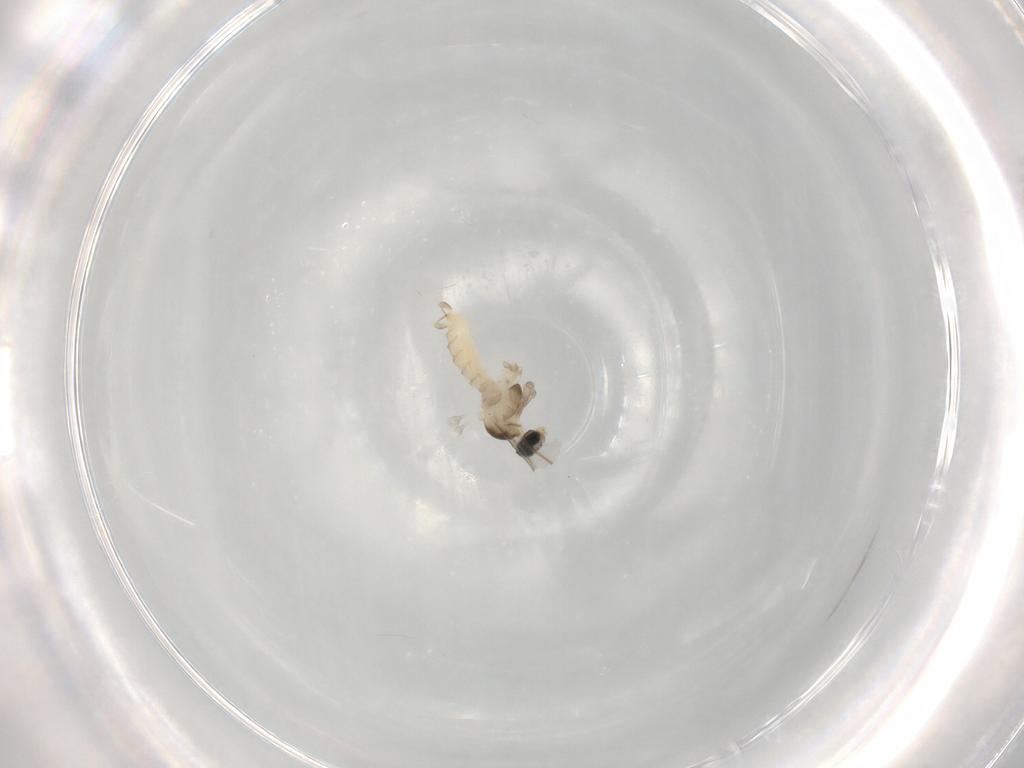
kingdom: Animalia
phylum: Arthropoda
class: Insecta
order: Diptera
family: Cecidomyiidae
